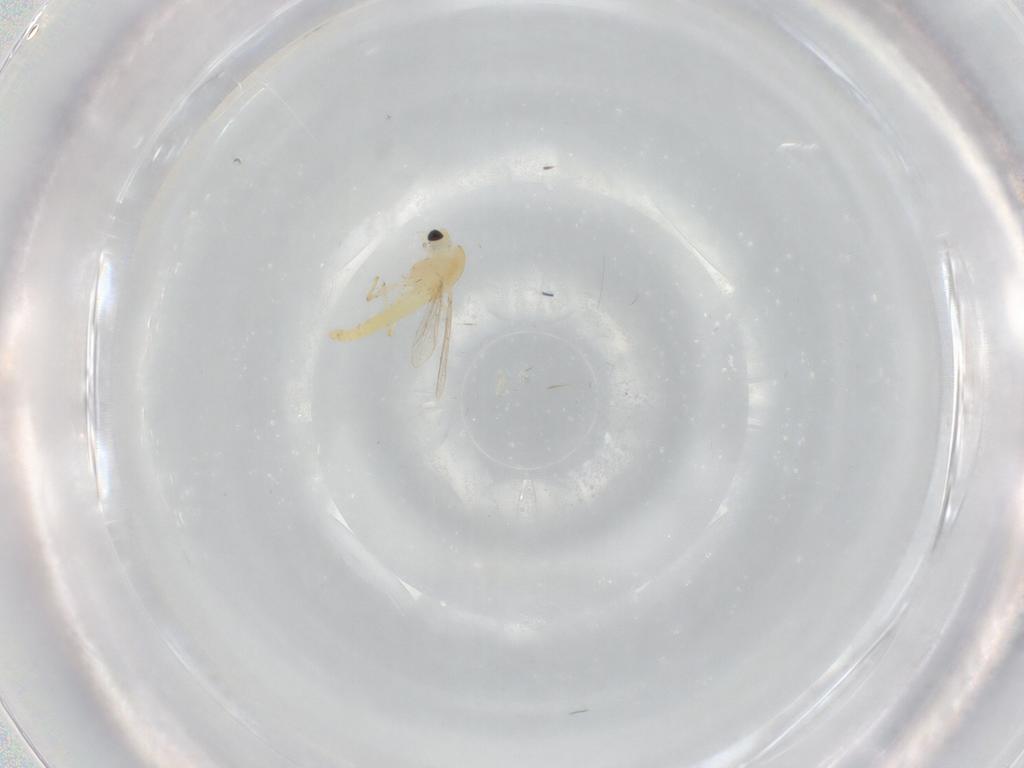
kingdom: Animalia
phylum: Arthropoda
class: Insecta
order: Diptera
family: Chironomidae
